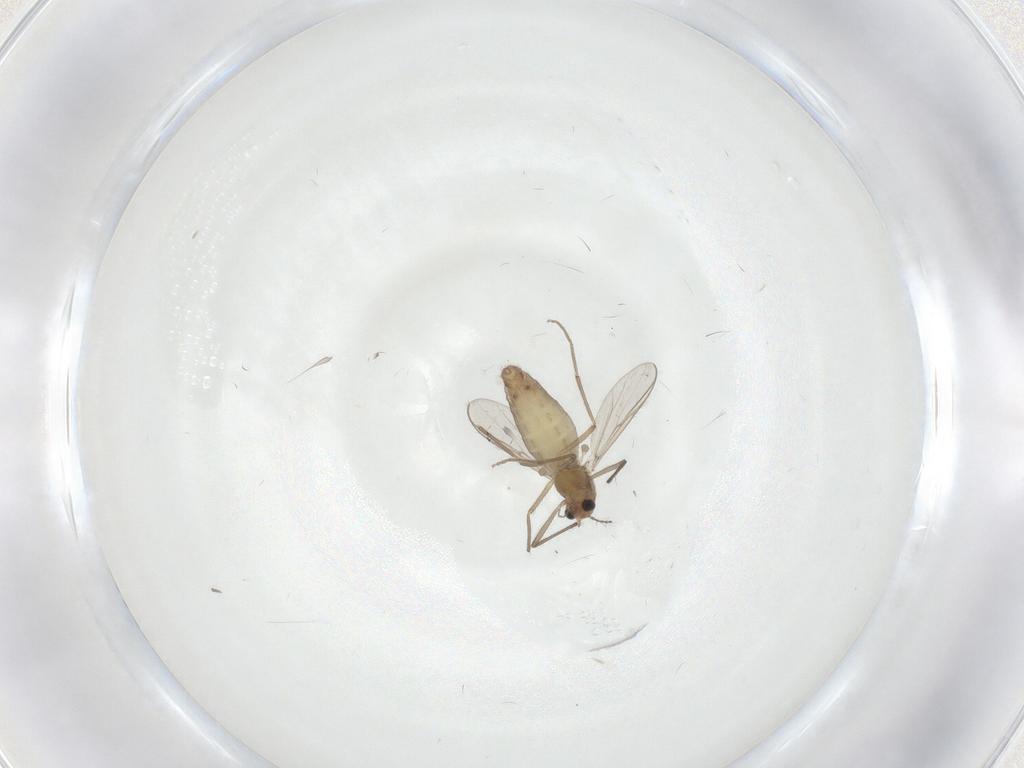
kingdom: Animalia
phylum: Arthropoda
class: Insecta
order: Diptera
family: Chironomidae
